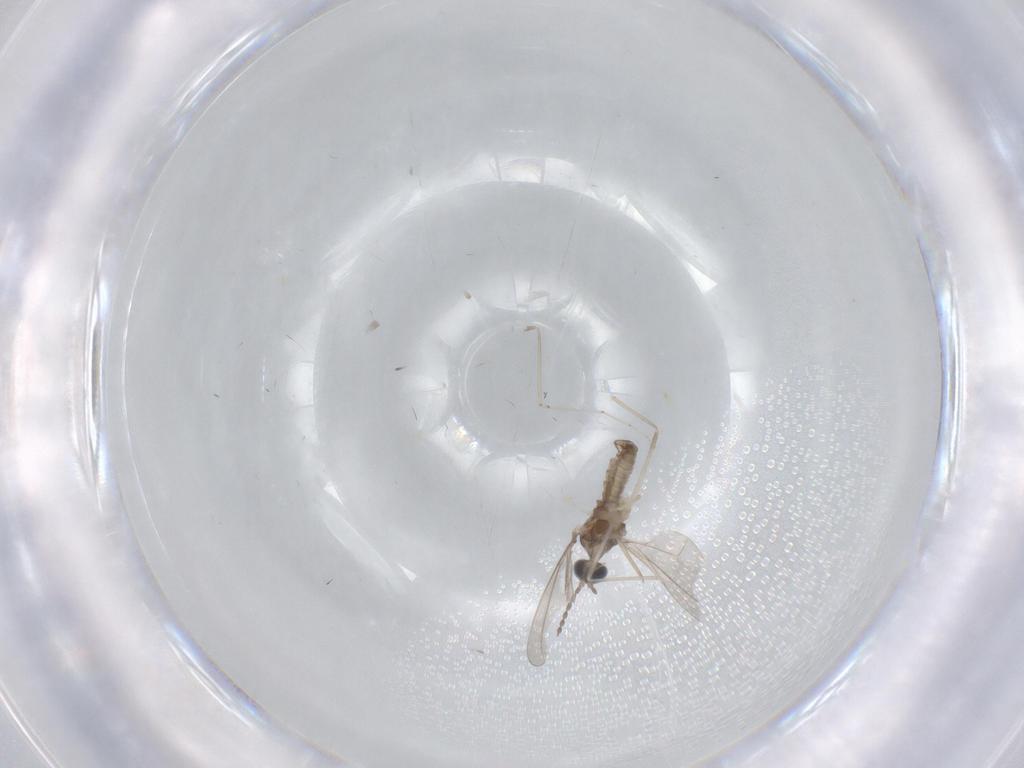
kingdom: Animalia
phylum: Arthropoda
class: Insecta
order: Diptera
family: Cecidomyiidae
